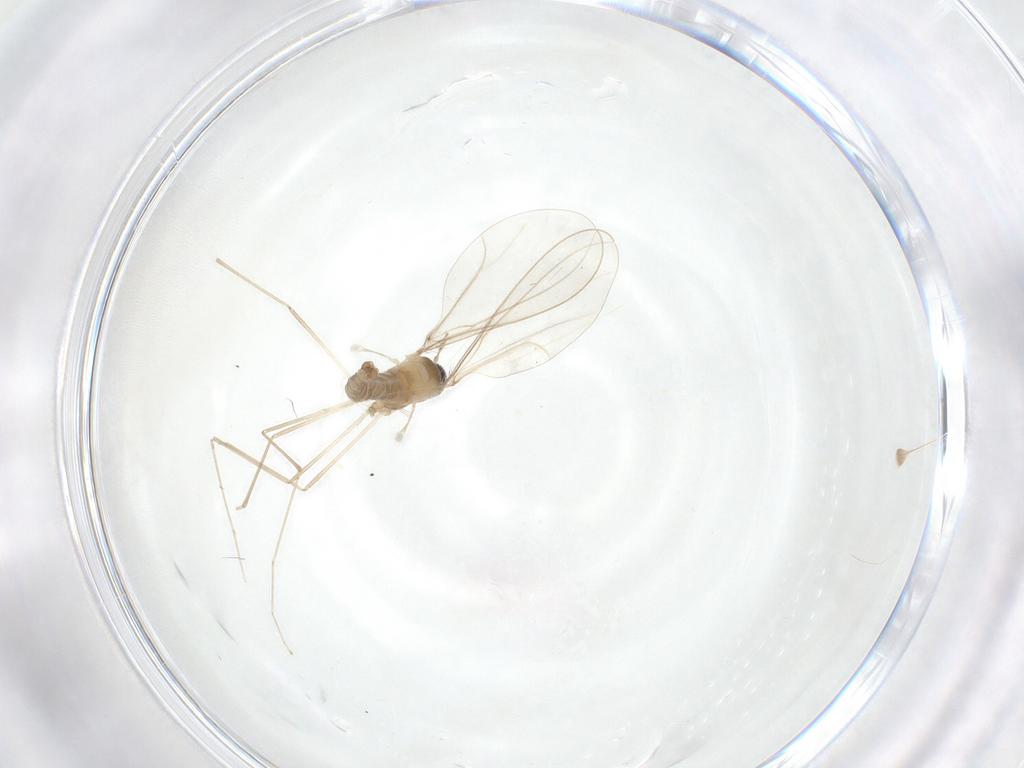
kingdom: Animalia
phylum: Arthropoda
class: Insecta
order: Diptera
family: Cecidomyiidae
